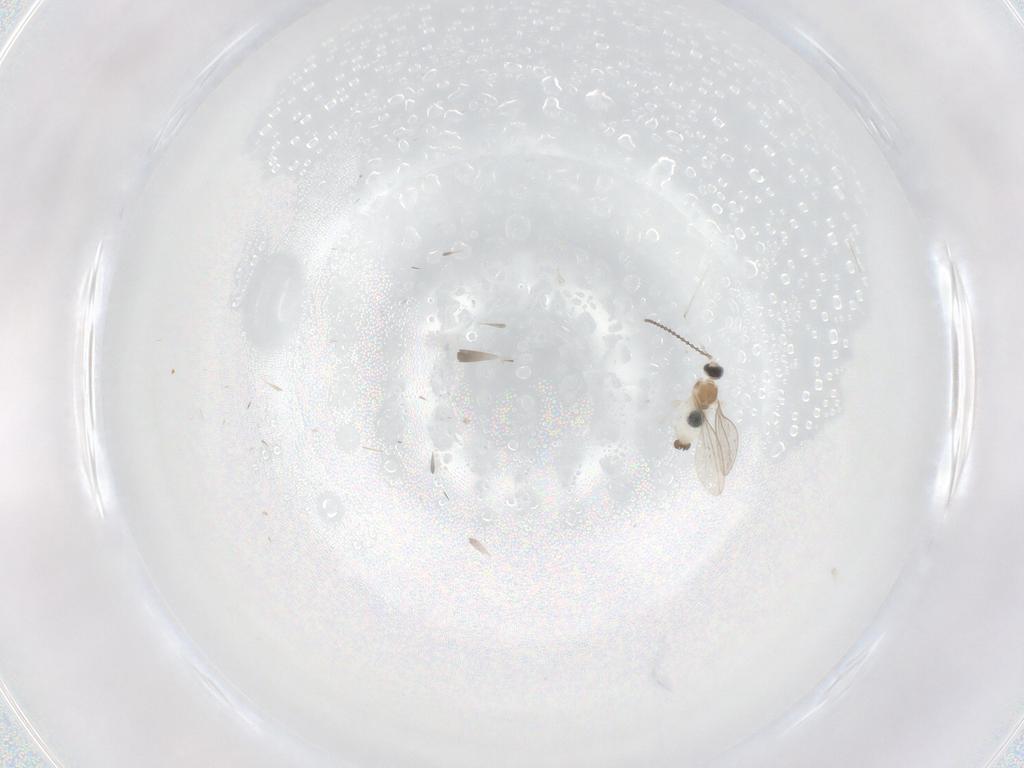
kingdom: Animalia
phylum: Arthropoda
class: Insecta
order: Diptera
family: Cecidomyiidae
